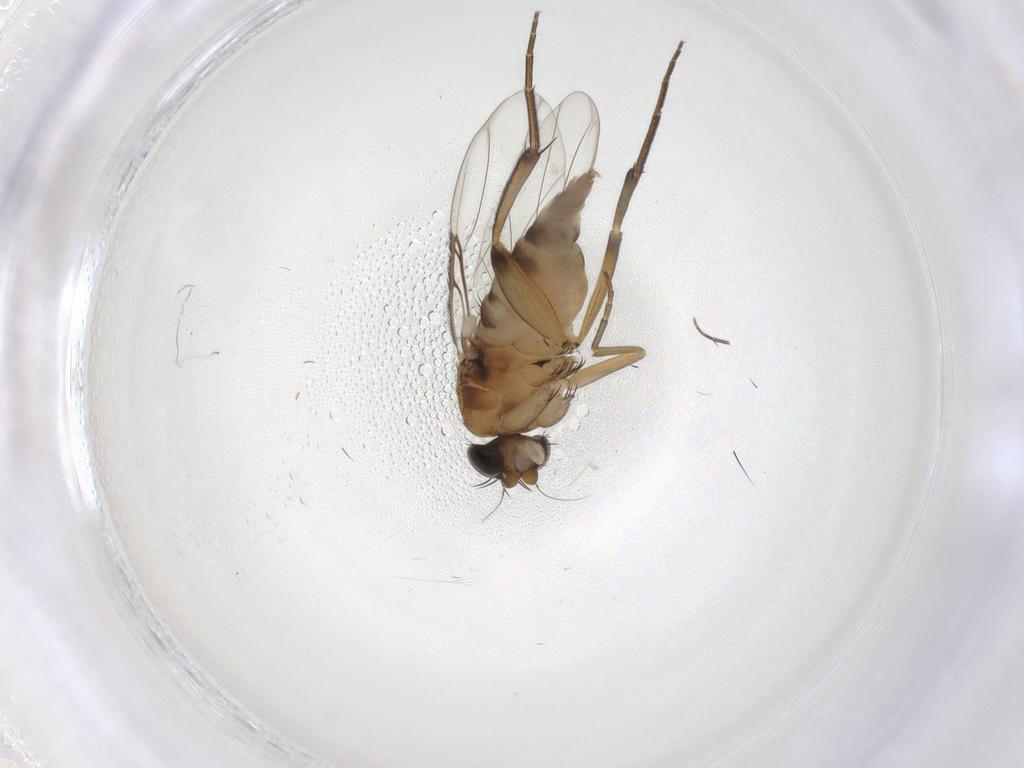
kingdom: Animalia
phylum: Arthropoda
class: Insecta
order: Diptera
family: Phoridae
